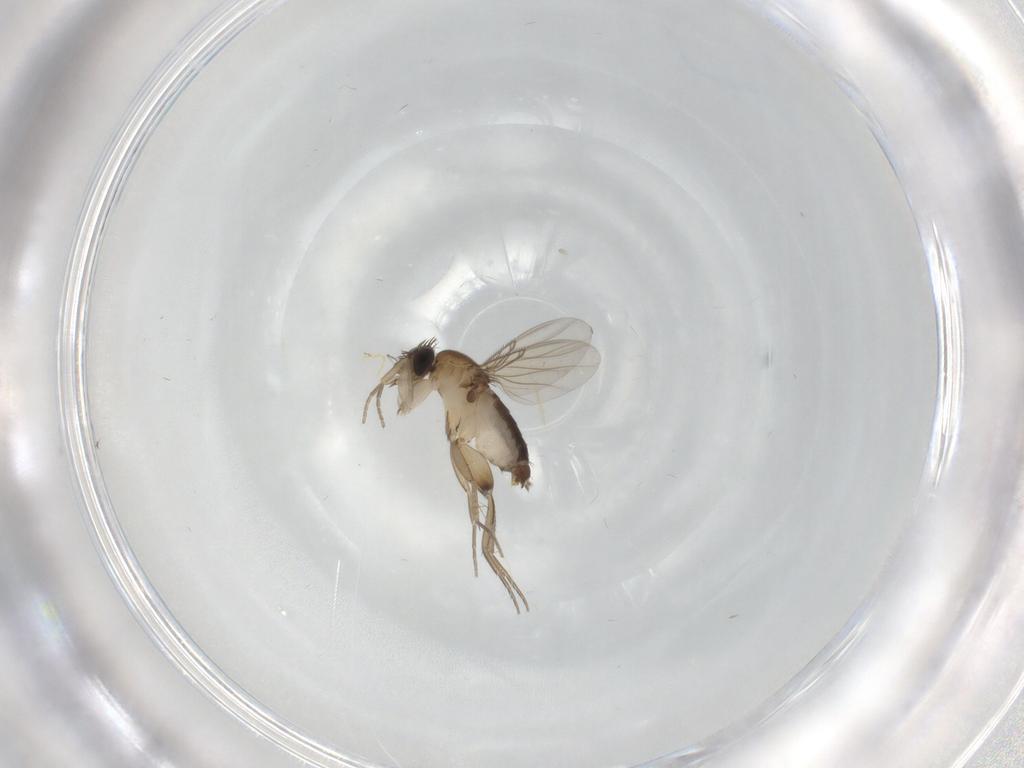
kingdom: Animalia
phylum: Arthropoda
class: Insecta
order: Diptera
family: Phoridae
